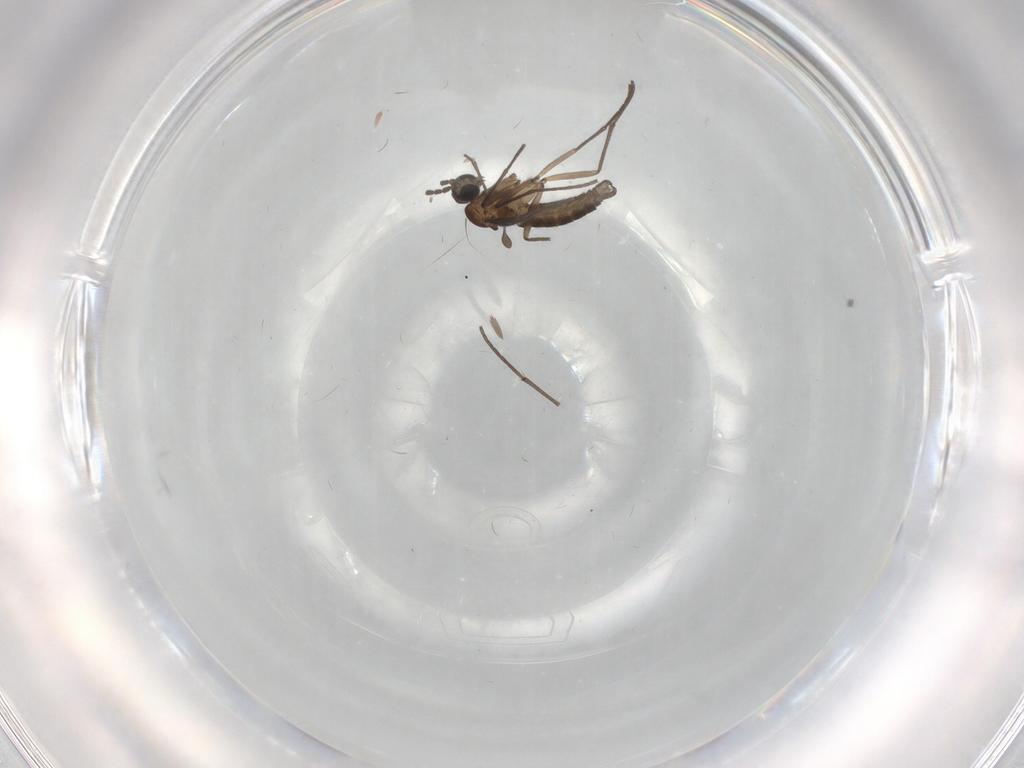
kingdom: Animalia
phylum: Arthropoda
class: Insecta
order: Diptera
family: Sciaridae
